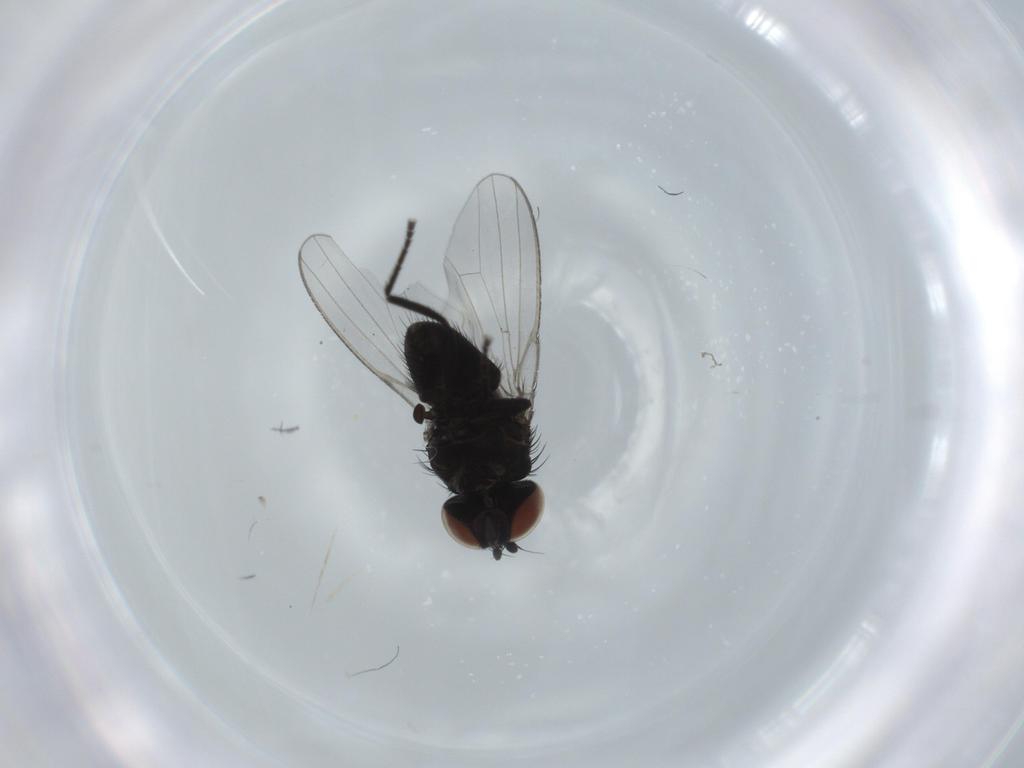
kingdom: Animalia
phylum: Arthropoda
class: Insecta
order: Diptera
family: Milichiidae
